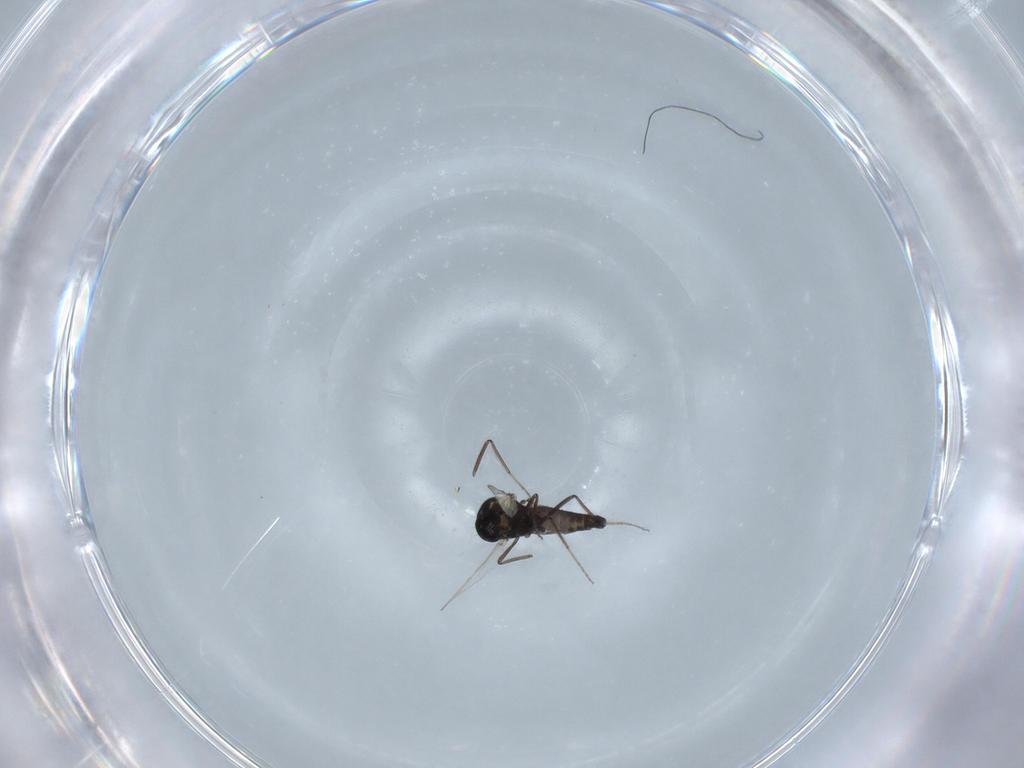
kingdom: Animalia
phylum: Arthropoda
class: Insecta
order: Diptera
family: Ceratopogonidae
